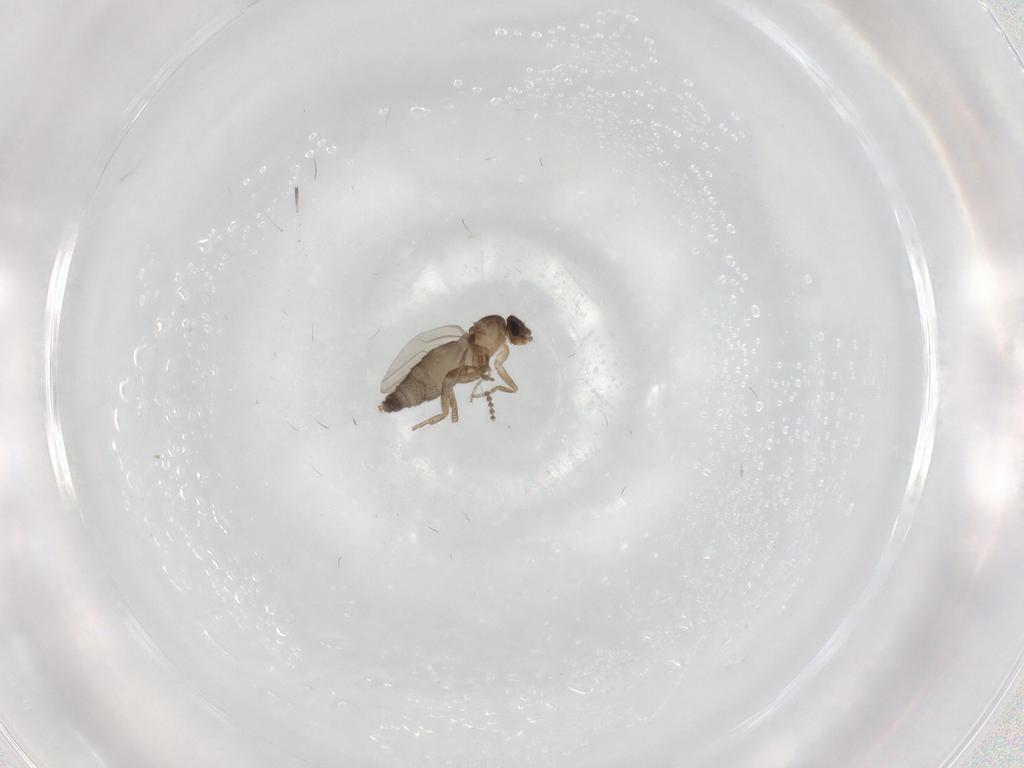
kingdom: Animalia
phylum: Arthropoda
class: Insecta
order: Diptera
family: Phoridae
